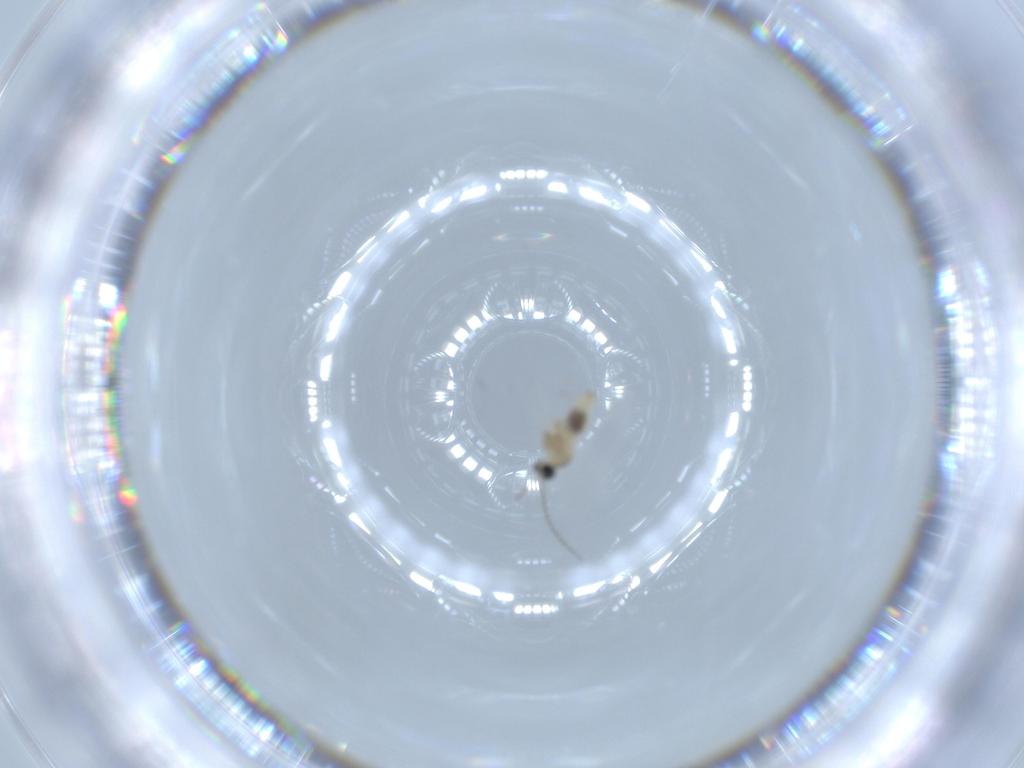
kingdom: Animalia
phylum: Arthropoda
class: Insecta
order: Diptera
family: Cecidomyiidae
